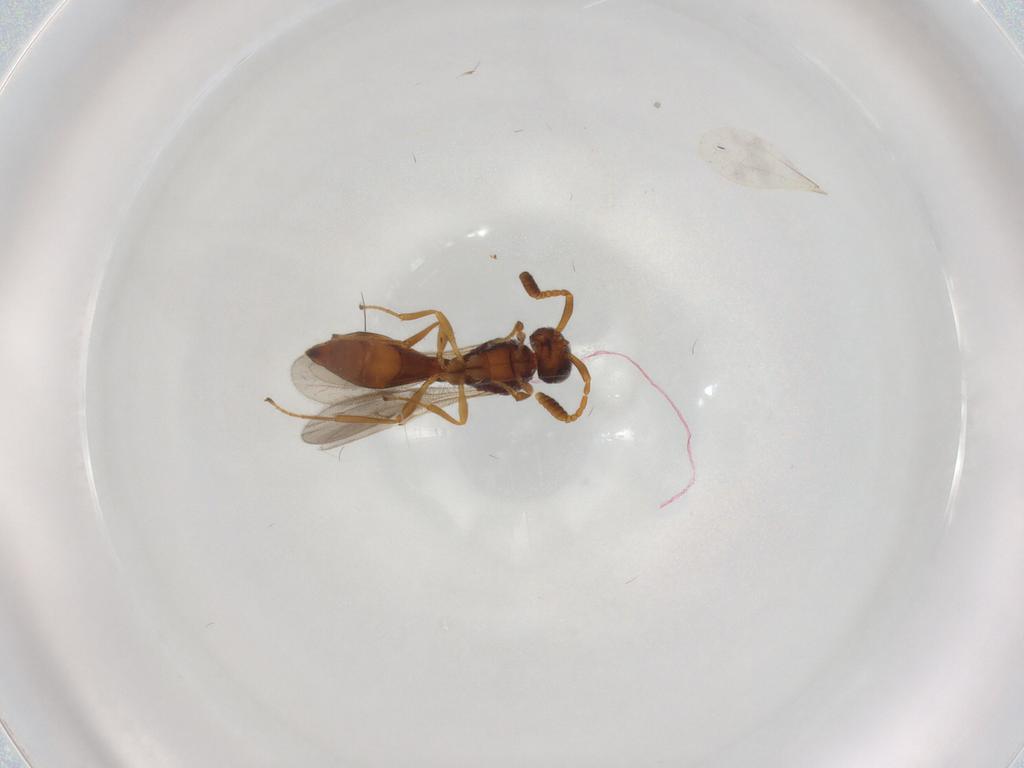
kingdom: Animalia
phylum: Arthropoda
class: Insecta
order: Hymenoptera
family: Scelionidae
